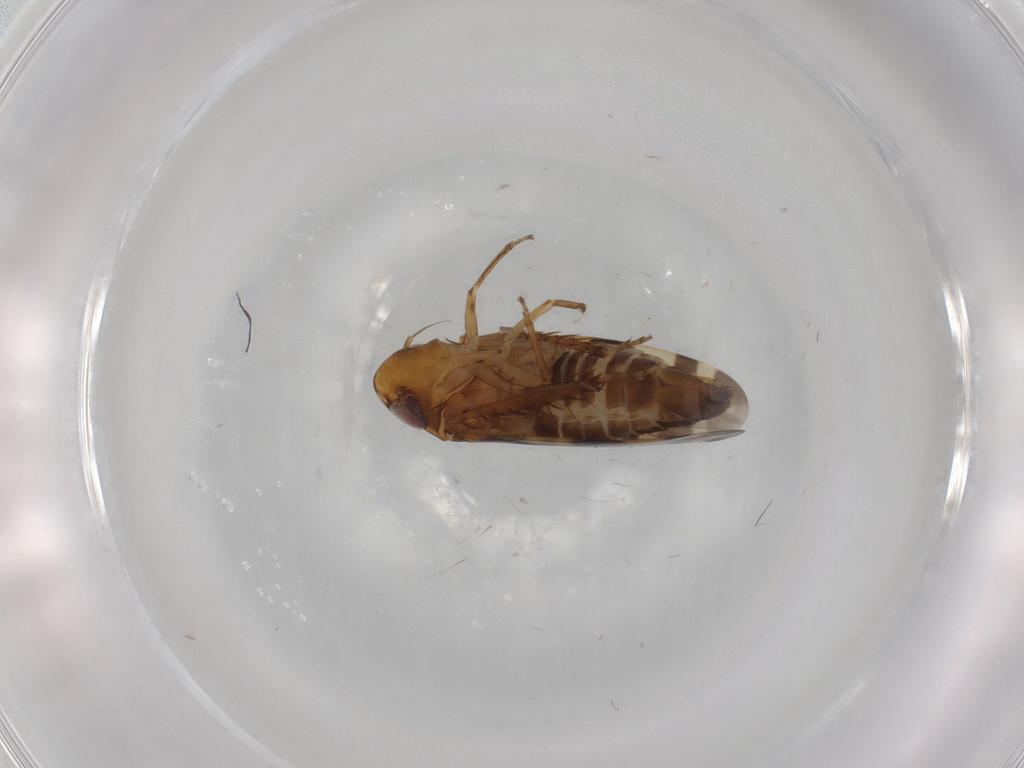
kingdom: Animalia
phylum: Arthropoda
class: Insecta
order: Hemiptera
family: Cicadellidae
